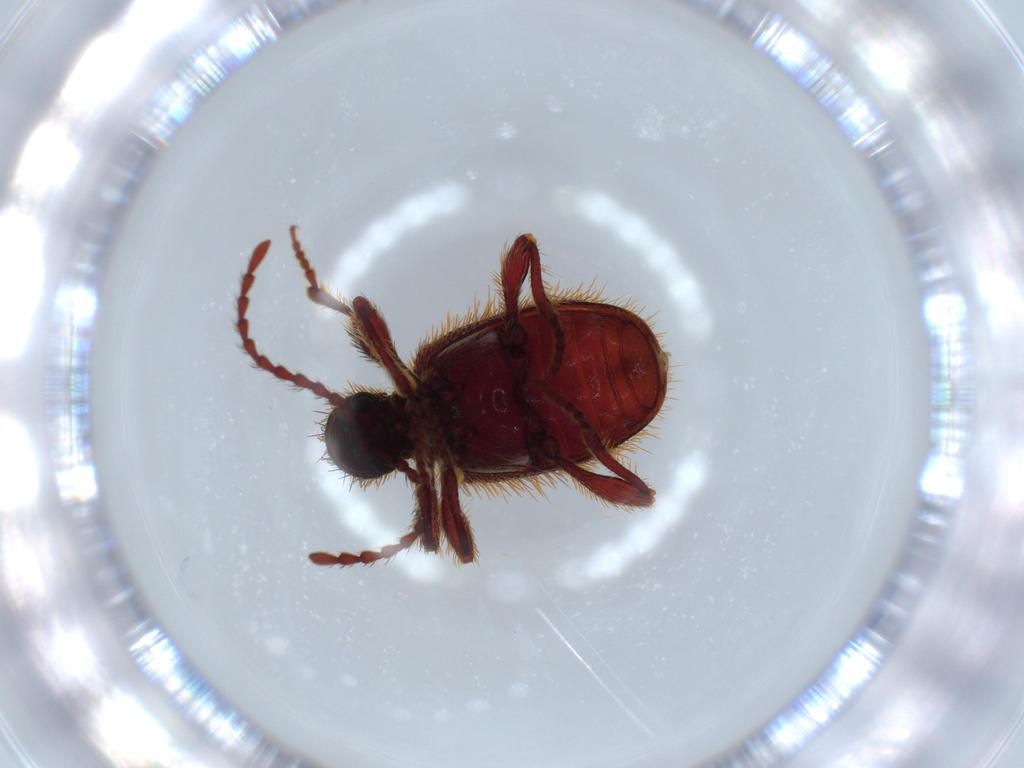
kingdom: Animalia
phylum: Arthropoda
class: Insecta
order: Coleoptera
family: Ptinidae
